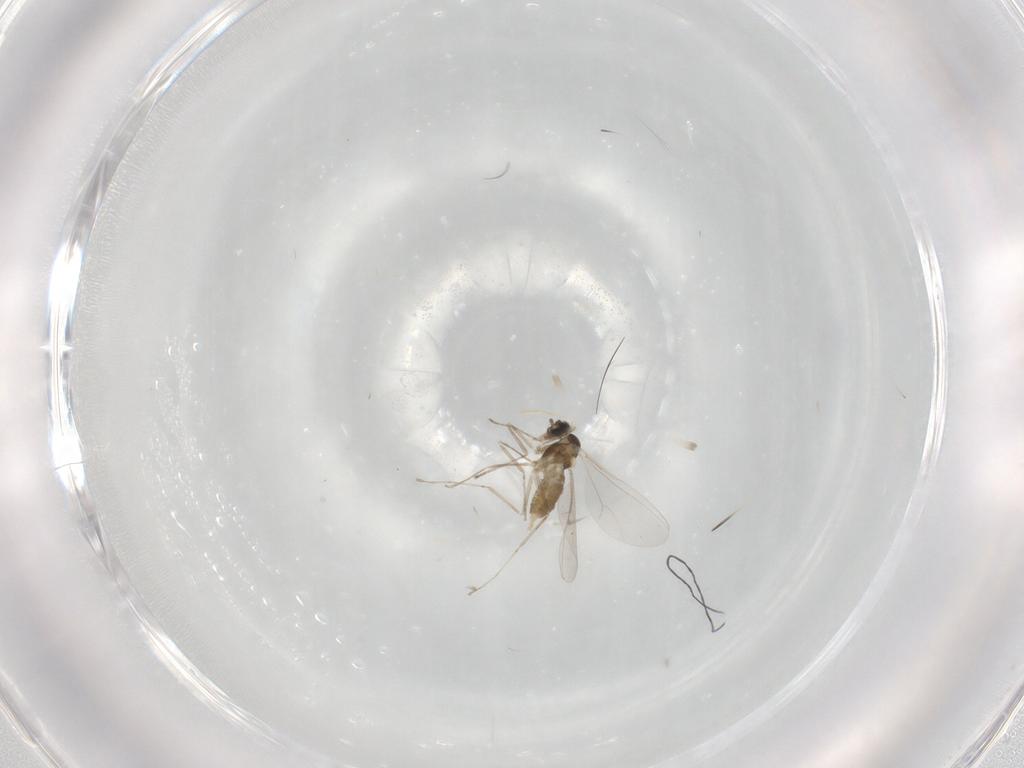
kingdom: Animalia
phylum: Arthropoda
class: Insecta
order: Diptera
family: Cecidomyiidae
